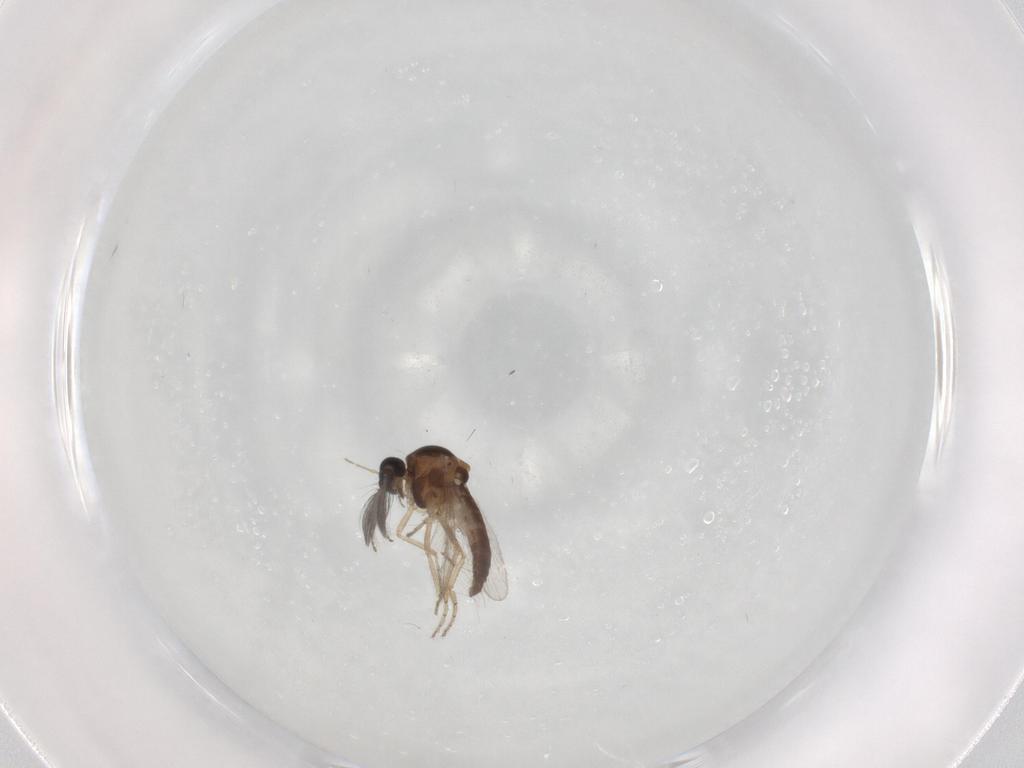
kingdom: Animalia
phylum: Arthropoda
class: Insecta
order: Diptera
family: Ceratopogonidae
